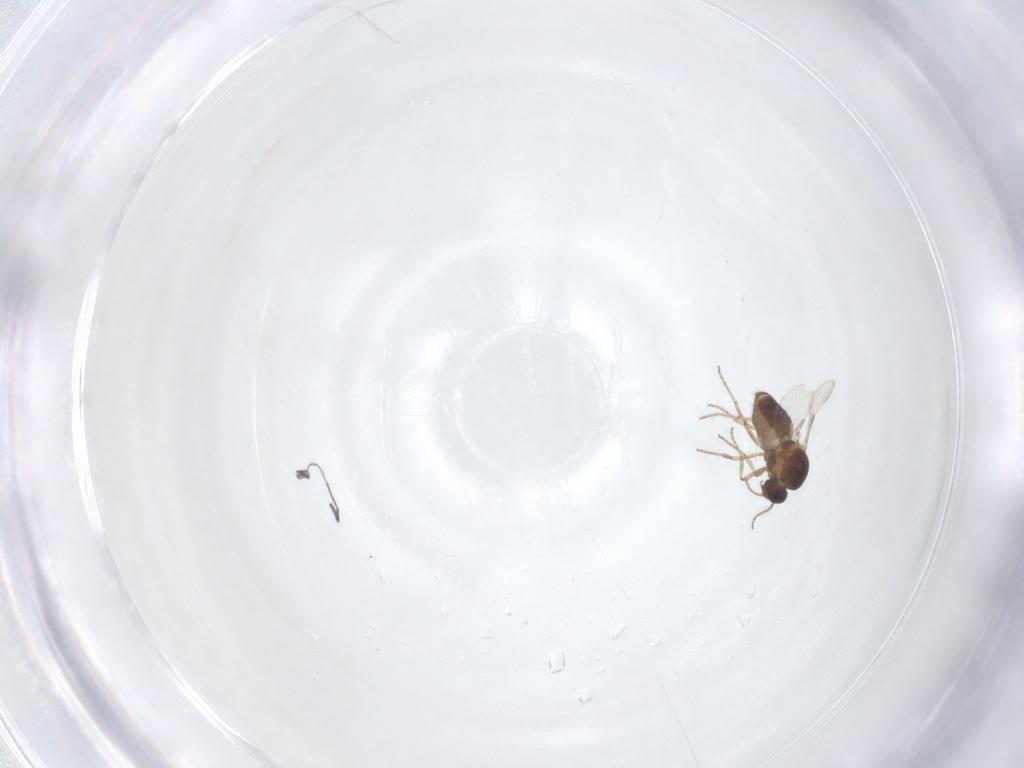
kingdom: Animalia
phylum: Arthropoda
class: Insecta
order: Diptera
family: Ceratopogonidae
